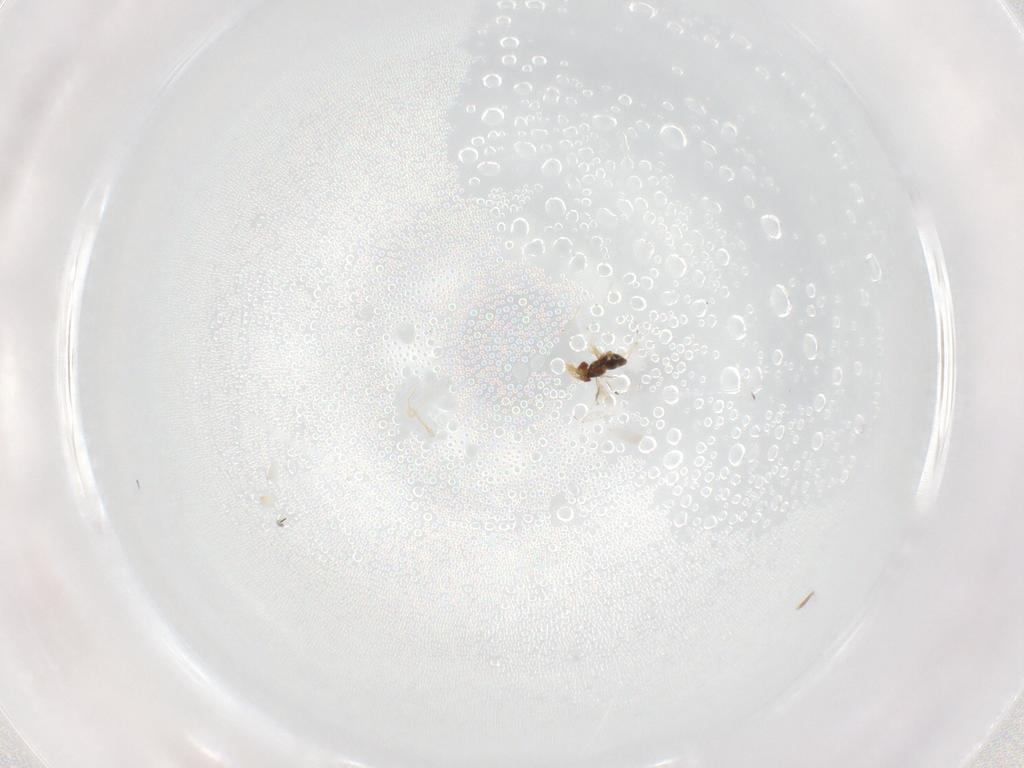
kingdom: Animalia
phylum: Arthropoda
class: Insecta
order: Hymenoptera
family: Trichogrammatidae
